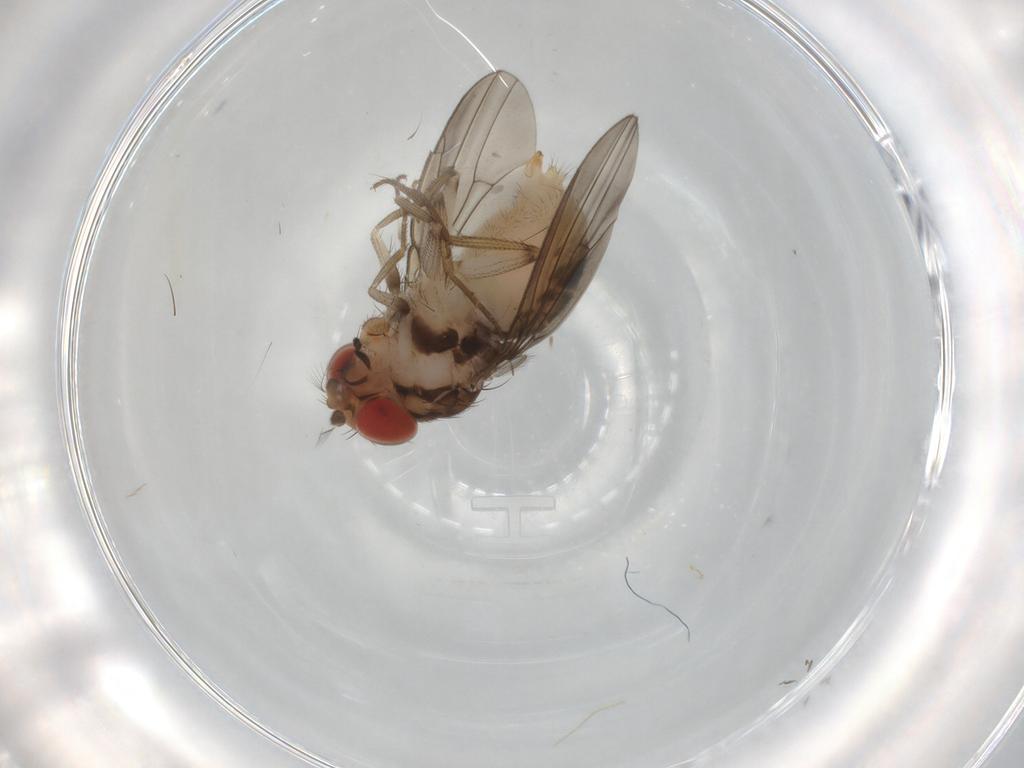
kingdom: Animalia
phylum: Arthropoda
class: Insecta
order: Diptera
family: Drosophilidae
